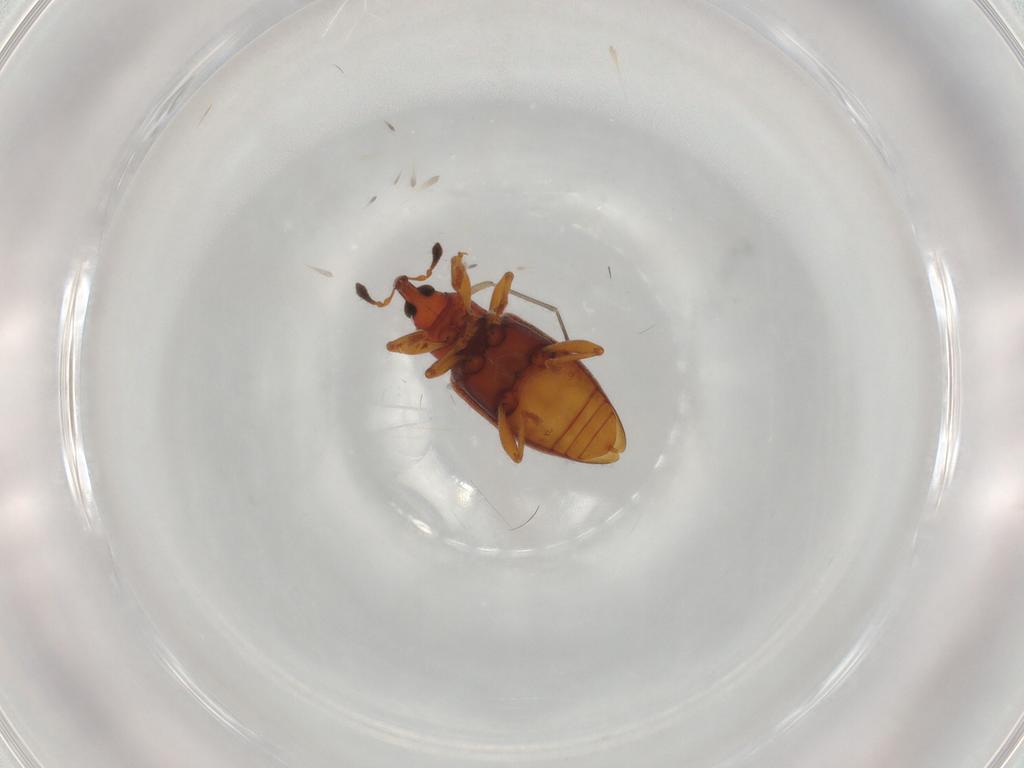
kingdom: Animalia
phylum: Arthropoda
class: Insecta
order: Coleoptera
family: Curculionidae
